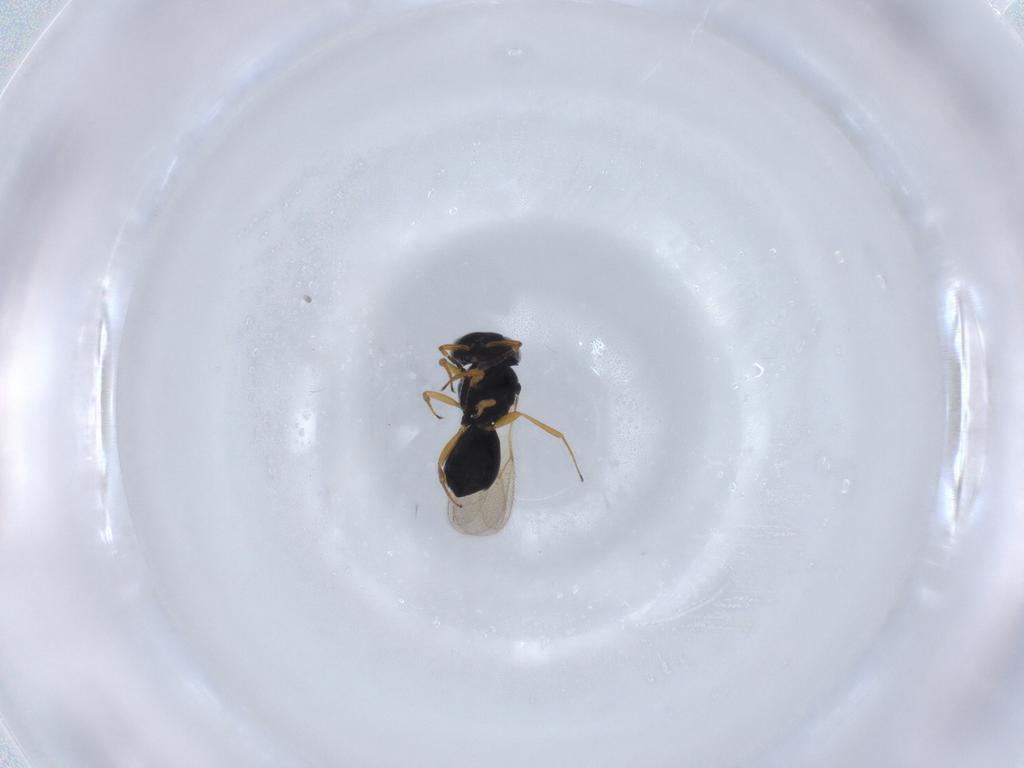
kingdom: Animalia
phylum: Arthropoda
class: Insecta
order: Hymenoptera
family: Scelionidae
